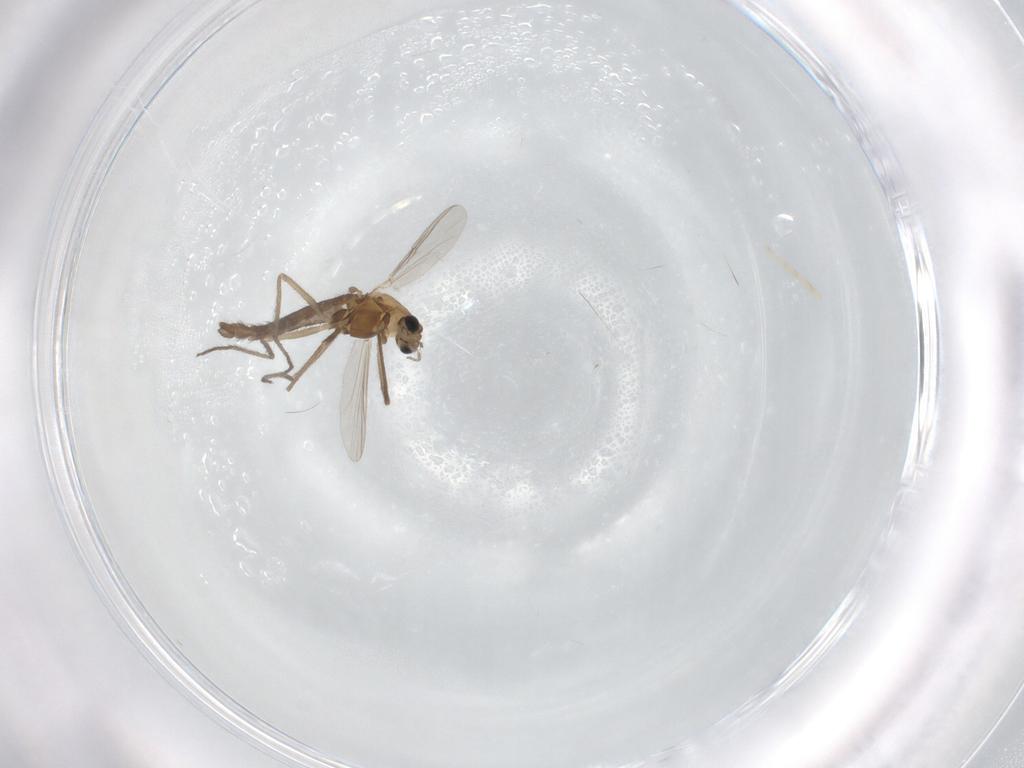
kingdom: Animalia
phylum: Arthropoda
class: Insecta
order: Diptera
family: Chironomidae
